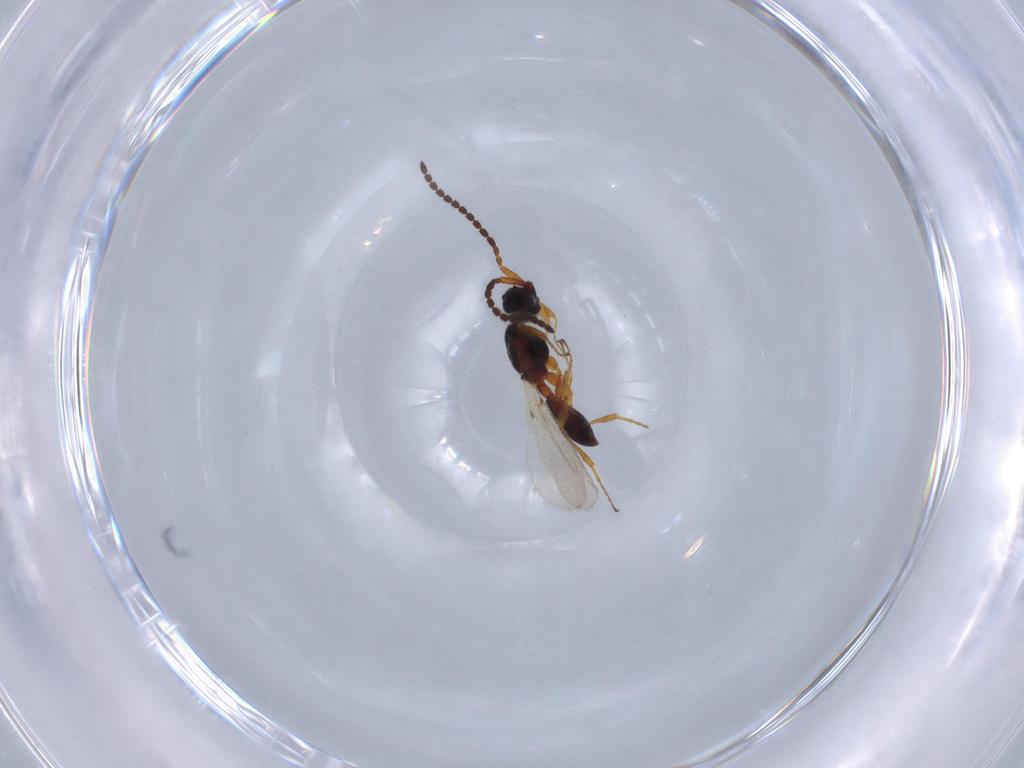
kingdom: Animalia
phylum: Arthropoda
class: Insecta
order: Hymenoptera
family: Diapriidae
